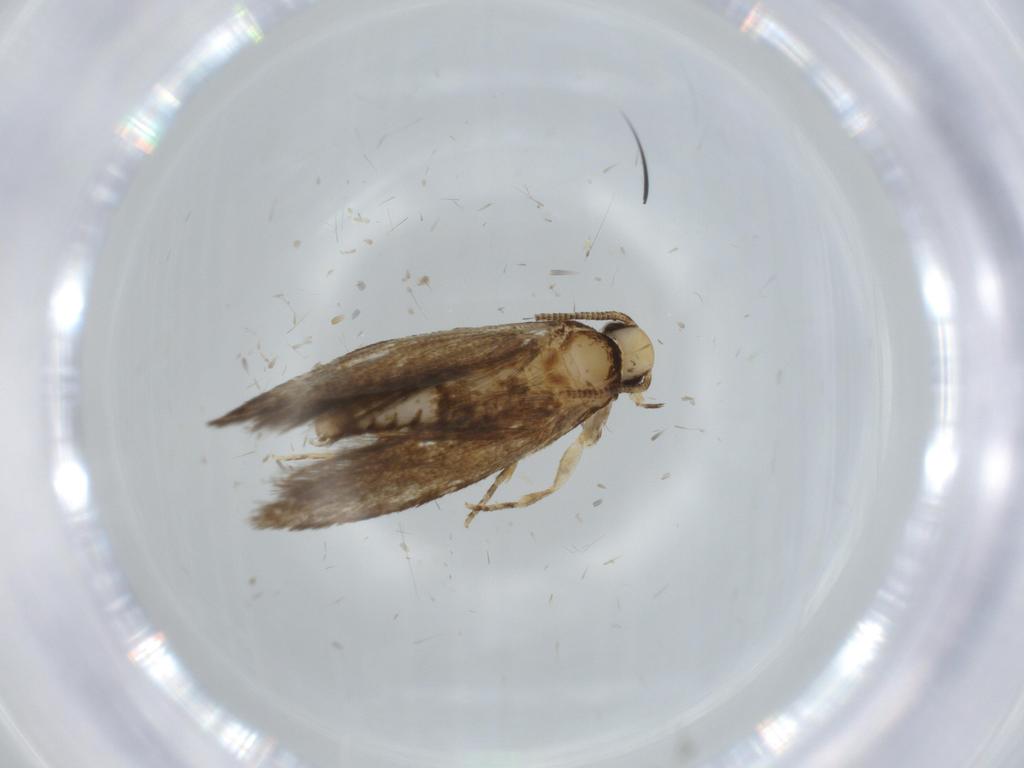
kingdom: Animalia
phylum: Arthropoda
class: Insecta
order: Lepidoptera
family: Tineidae
